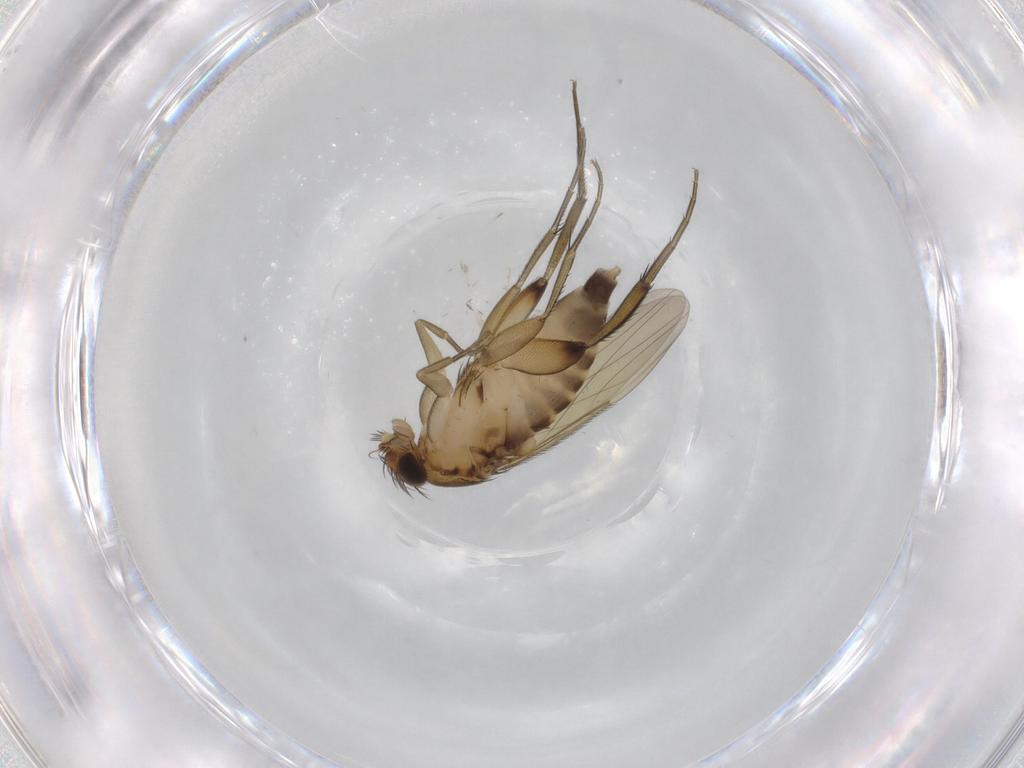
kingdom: Animalia
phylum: Arthropoda
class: Insecta
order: Diptera
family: Phoridae
